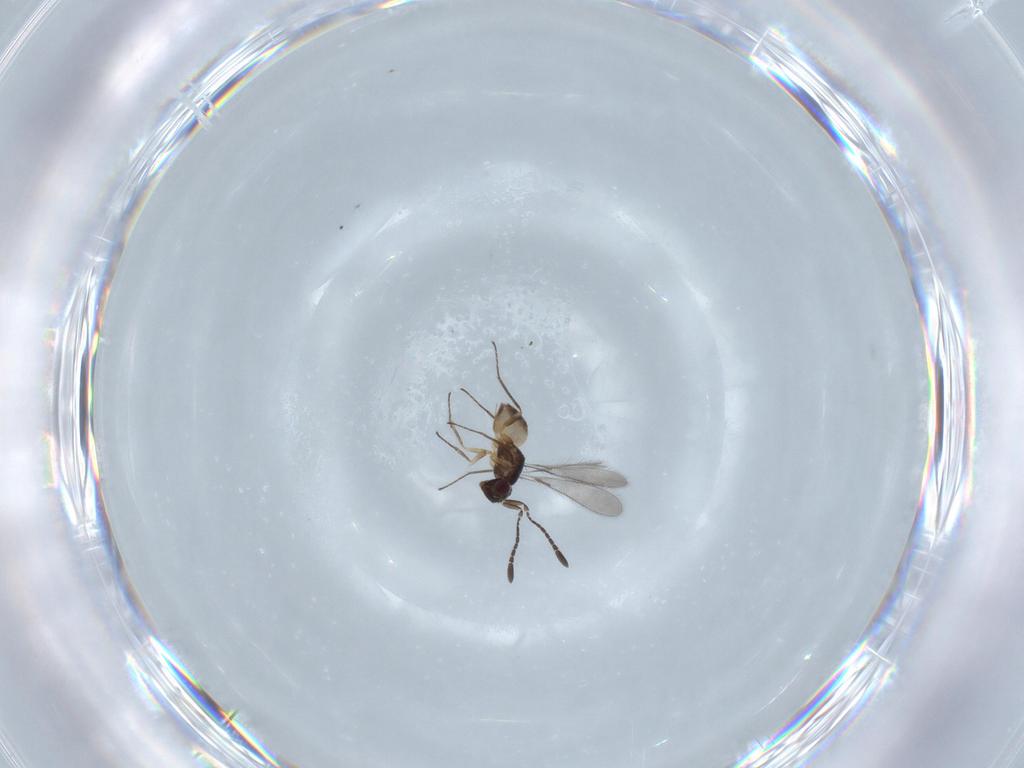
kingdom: Animalia
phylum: Arthropoda
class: Insecta
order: Hymenoptera
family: Mymaridae
